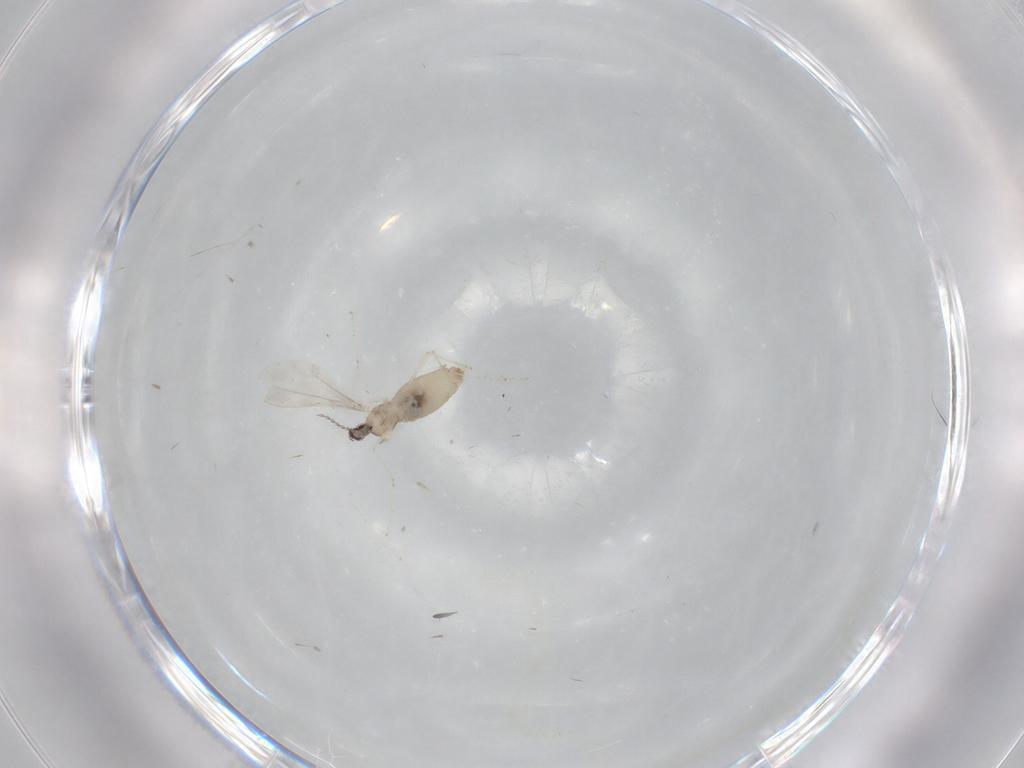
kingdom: Animalia
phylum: Arthropoda
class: Insecta
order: Diptera
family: Cecidomyiidae
